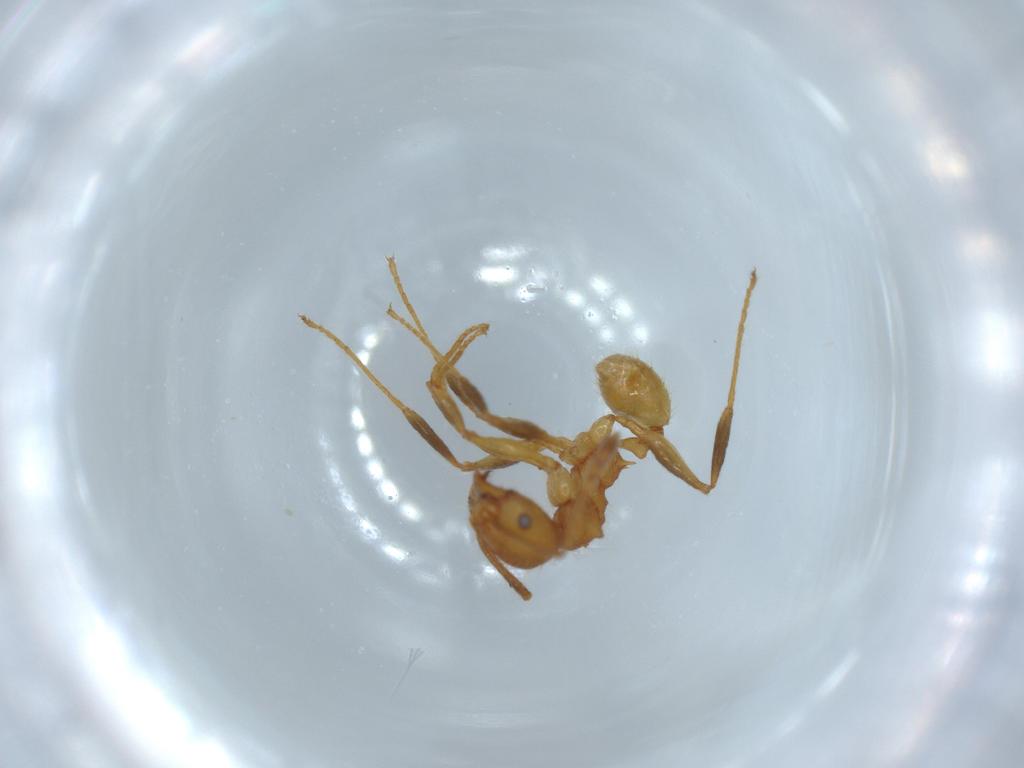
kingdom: Animalia
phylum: Arthropoda
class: Insecta
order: Hymenoptera
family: Formicidae
